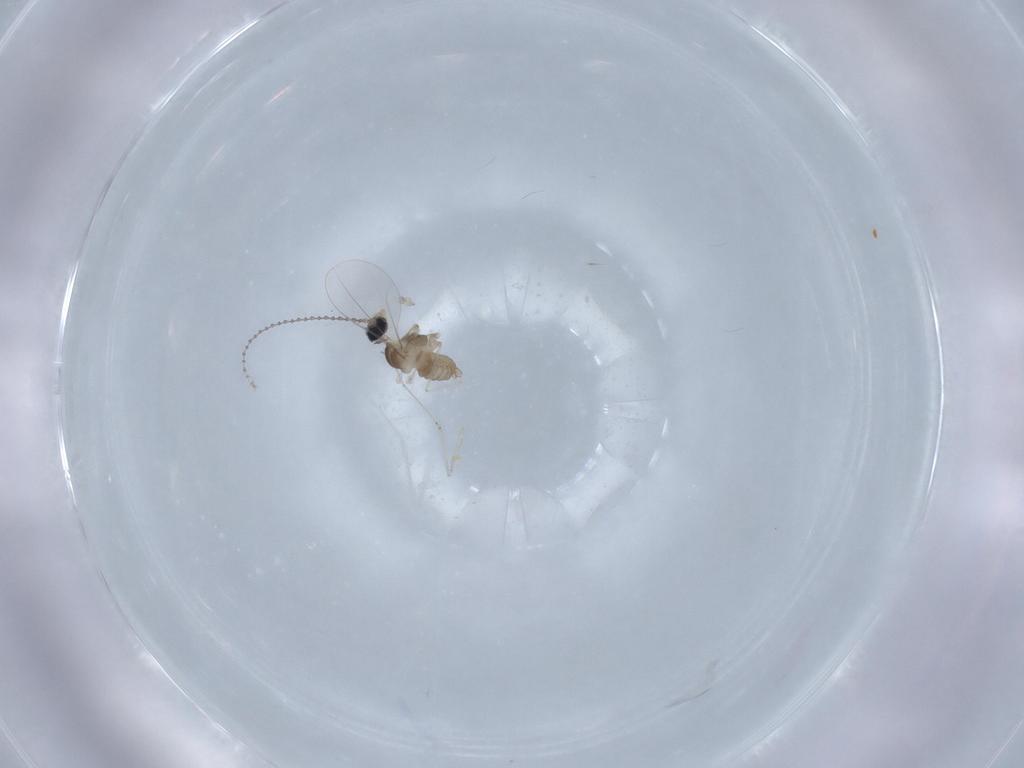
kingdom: Animalia
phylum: Arthropoda
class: Insecta
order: Diptera
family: Cecidomyiidae
